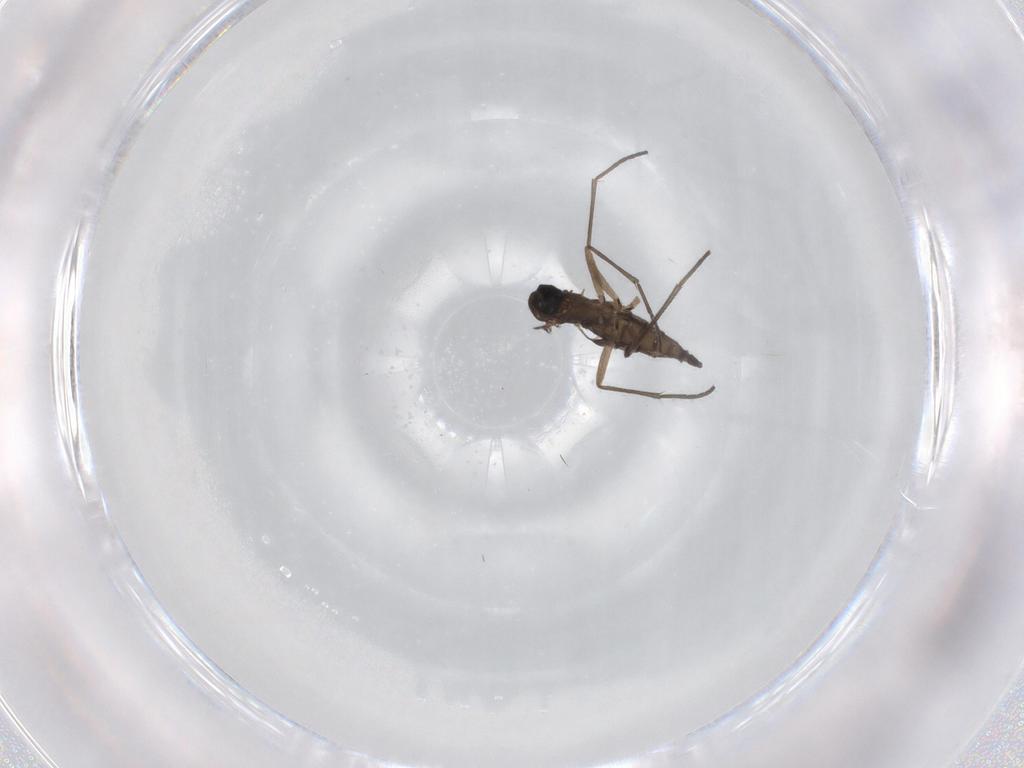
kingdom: Animalia
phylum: Arthropoda
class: Insecta
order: Diptera
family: Sciaridae
